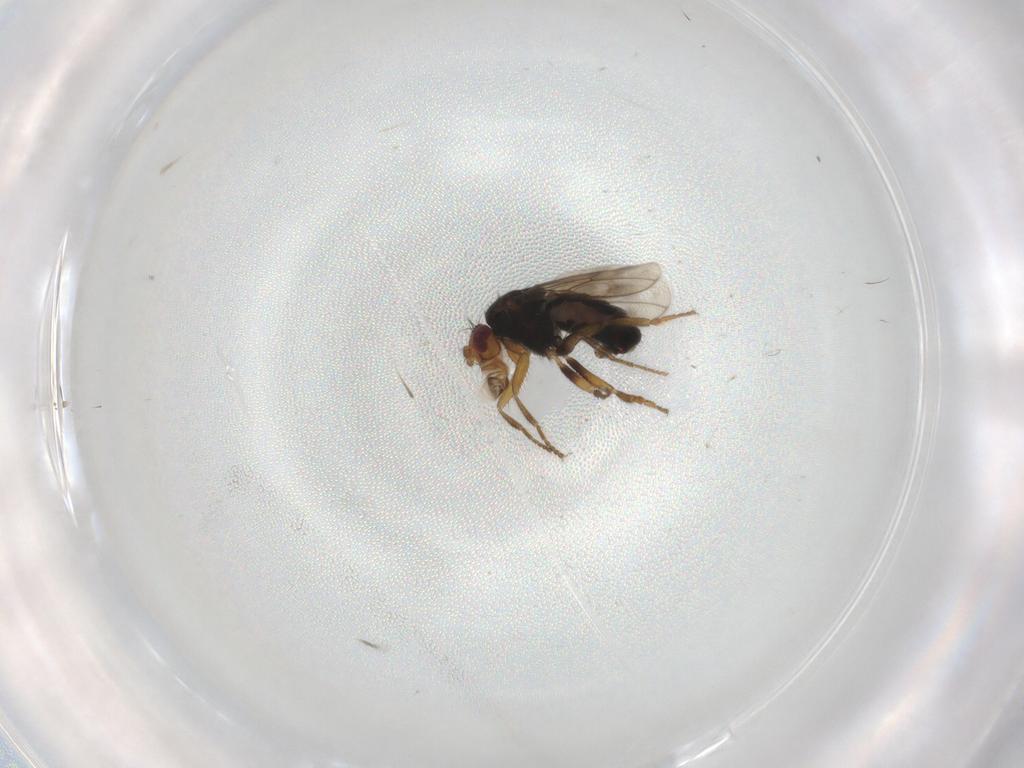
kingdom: Animalia
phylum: Arthropoda
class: Insecta
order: Diptera
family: Sphaeroceridae
